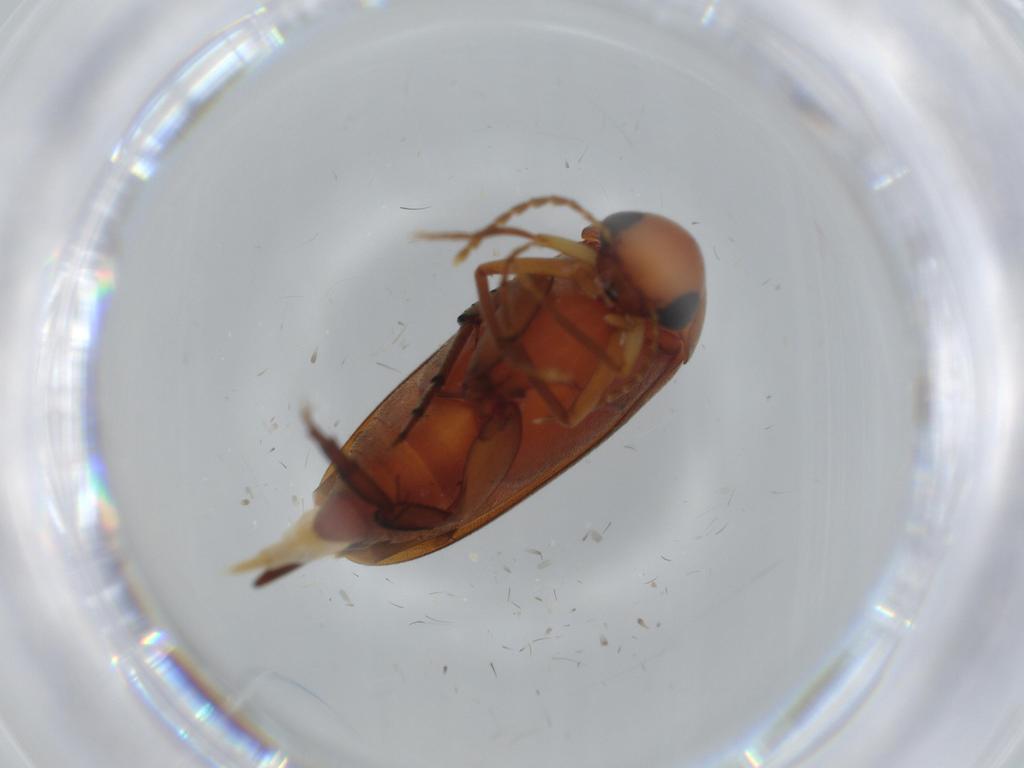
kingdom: Animalia
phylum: Arthropoda
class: Insecta
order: Coleoptera
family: Mordellidae
